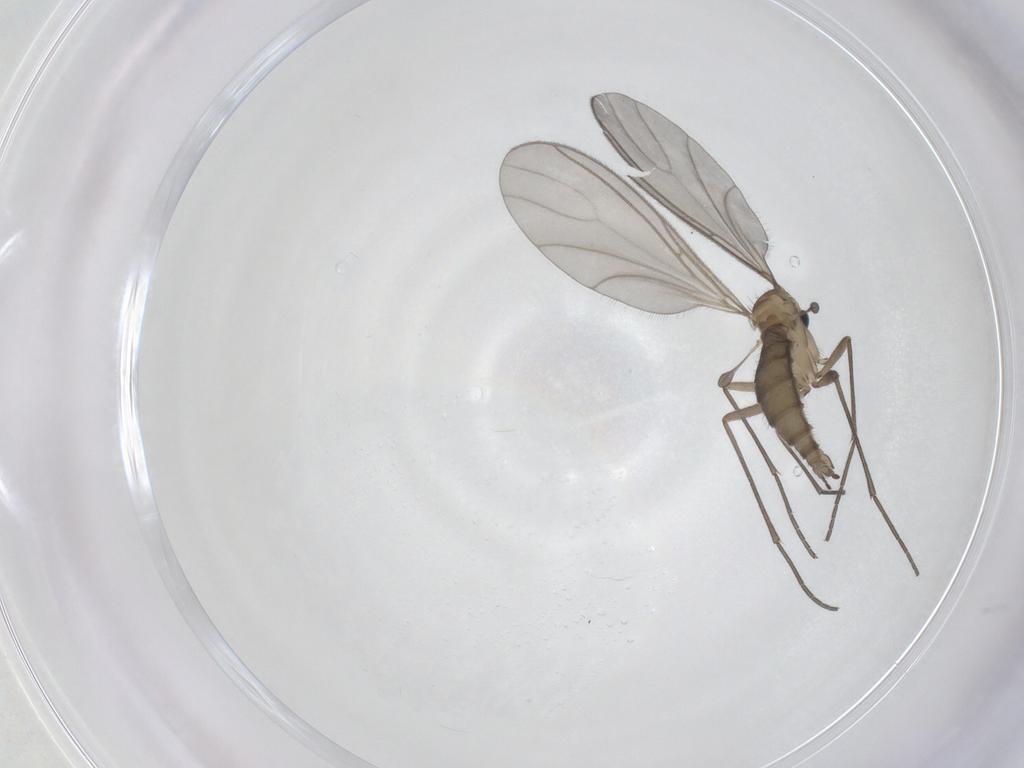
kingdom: Animalia
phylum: Arthropoda
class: Insecta
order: Diptera
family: Sciaridae
